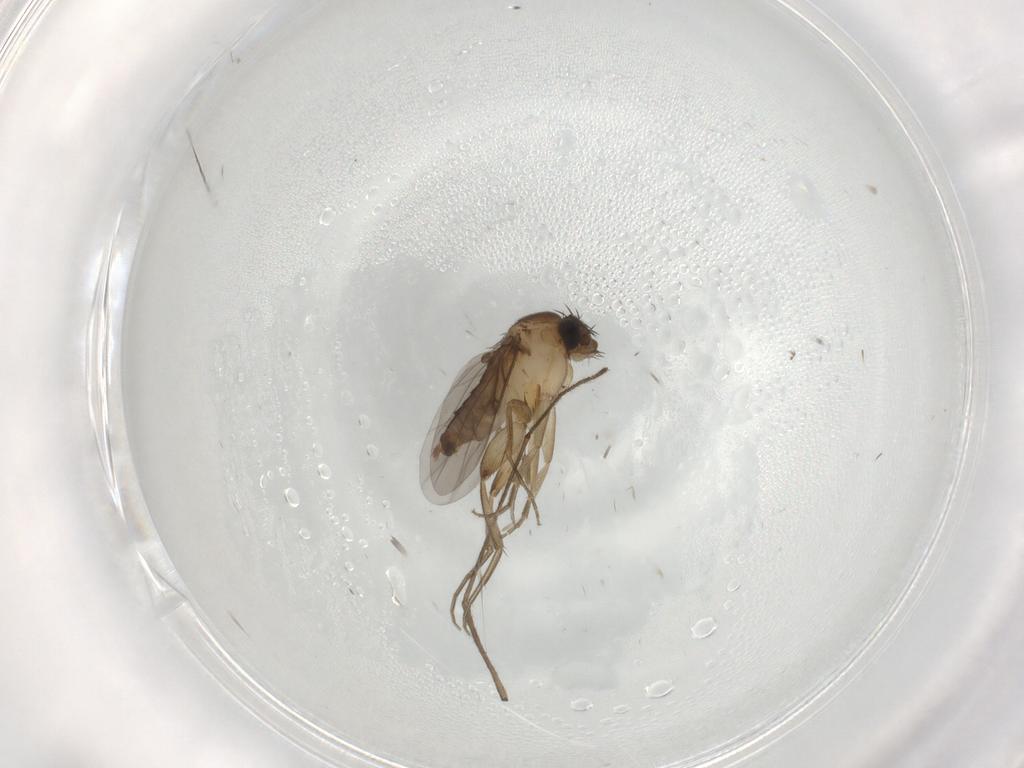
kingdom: Animalia
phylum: Arthropoda
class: Insecta
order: Diptera
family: Phoridae
